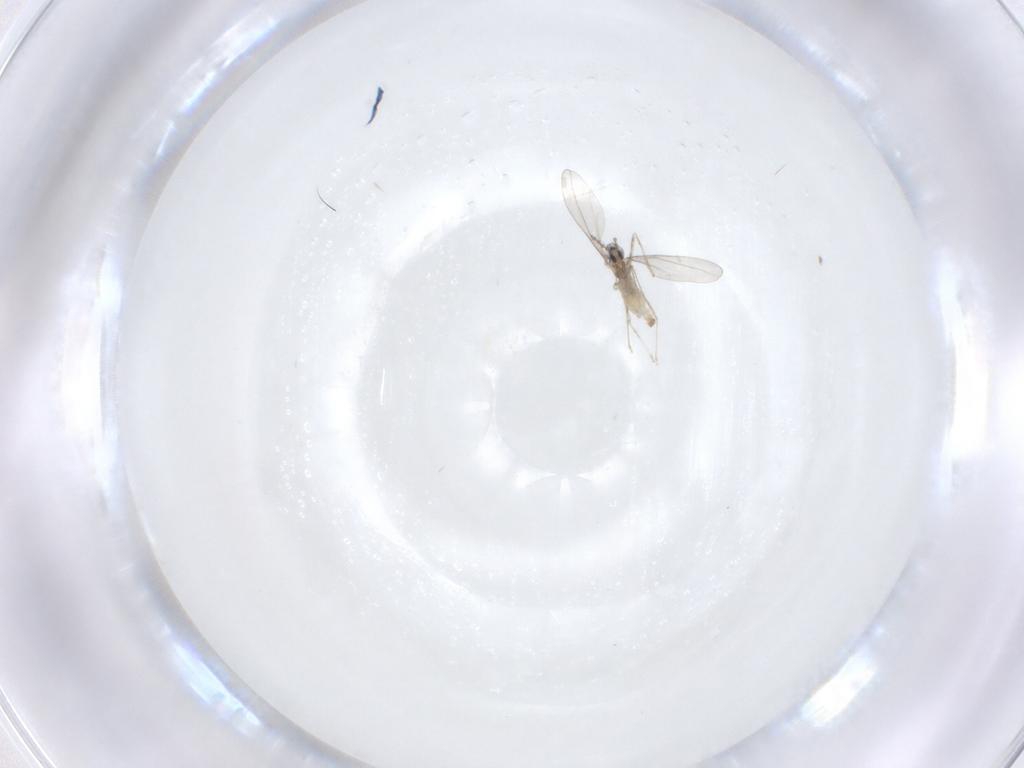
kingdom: Animalia
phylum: Arthropoda
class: Insecta
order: Diptera
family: Cecidomyiidae
